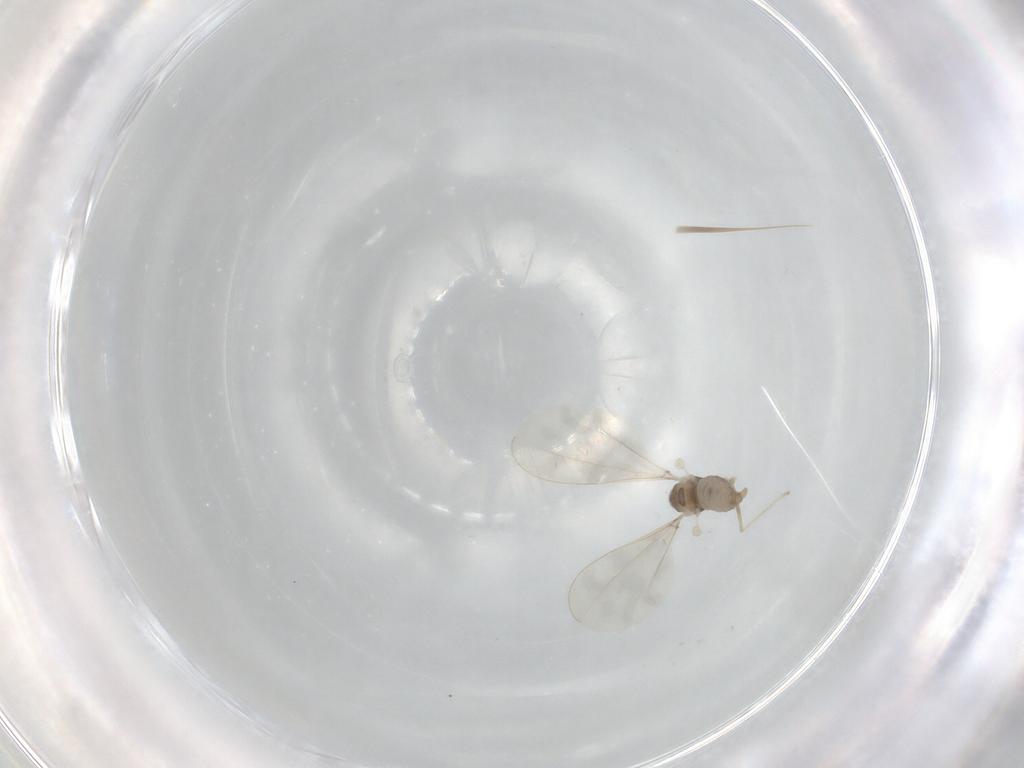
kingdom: Animalia
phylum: Arthropoda
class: Insecta
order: Diptera
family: Cecidomyiidae
